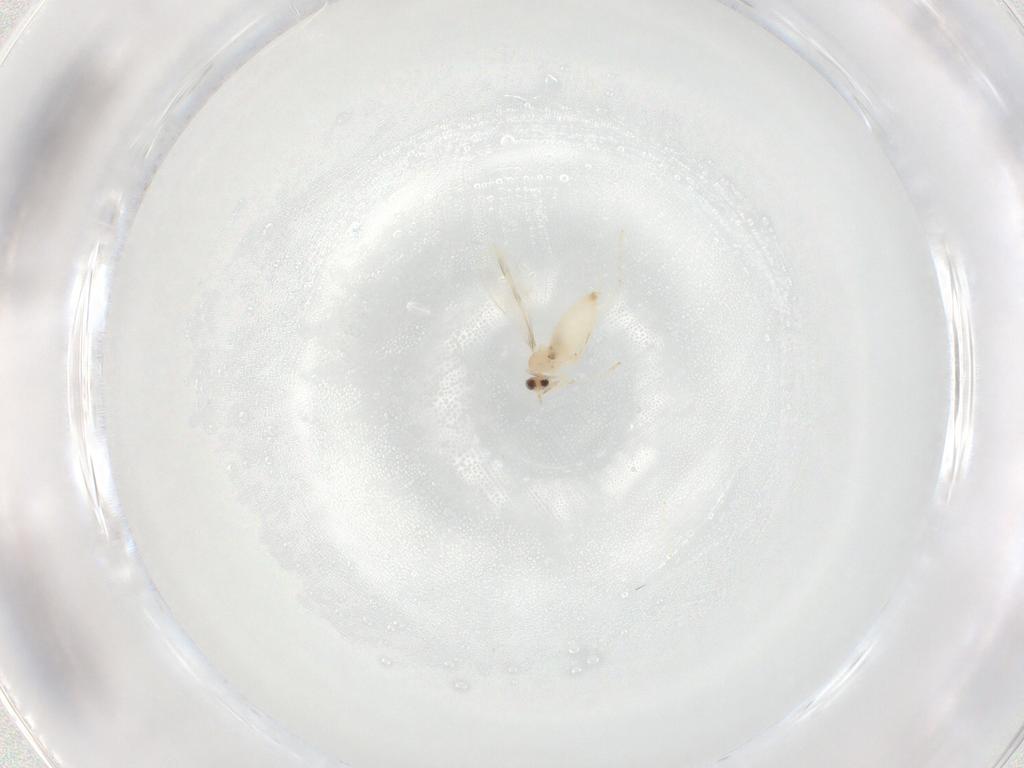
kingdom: Animalia
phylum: Arthropoda
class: Insecta
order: Diptera
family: Cecidomyiidae
